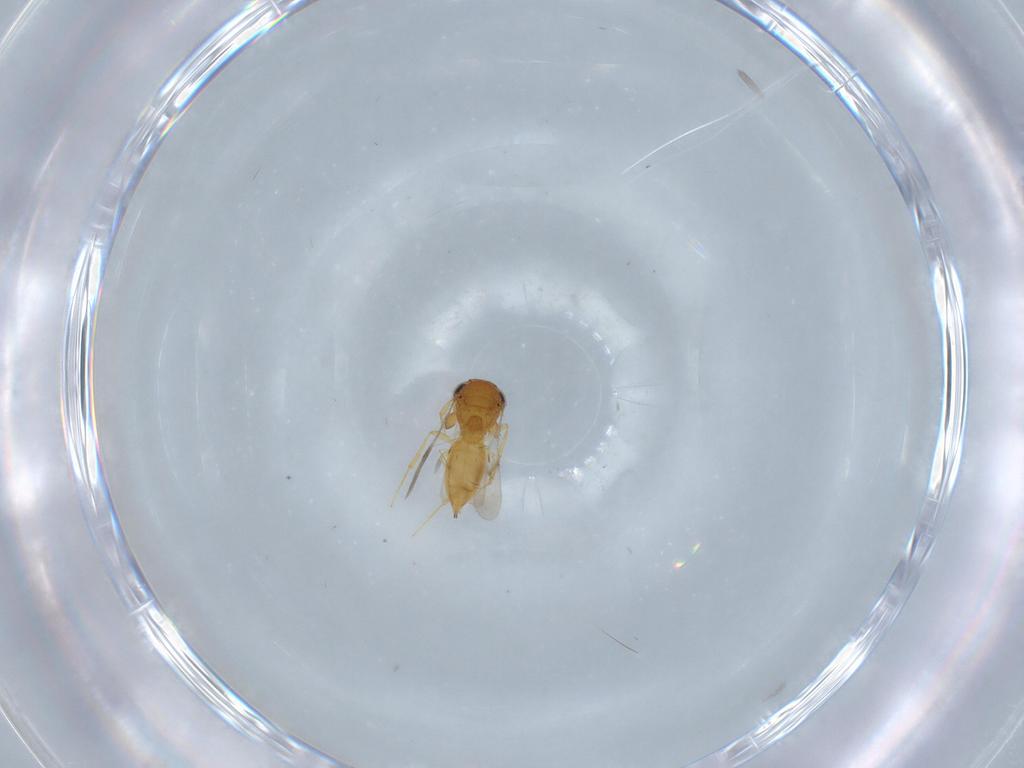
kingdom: Animalia
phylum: Arthropoda
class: Insecta
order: Hymenoptera
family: Scelionidae
